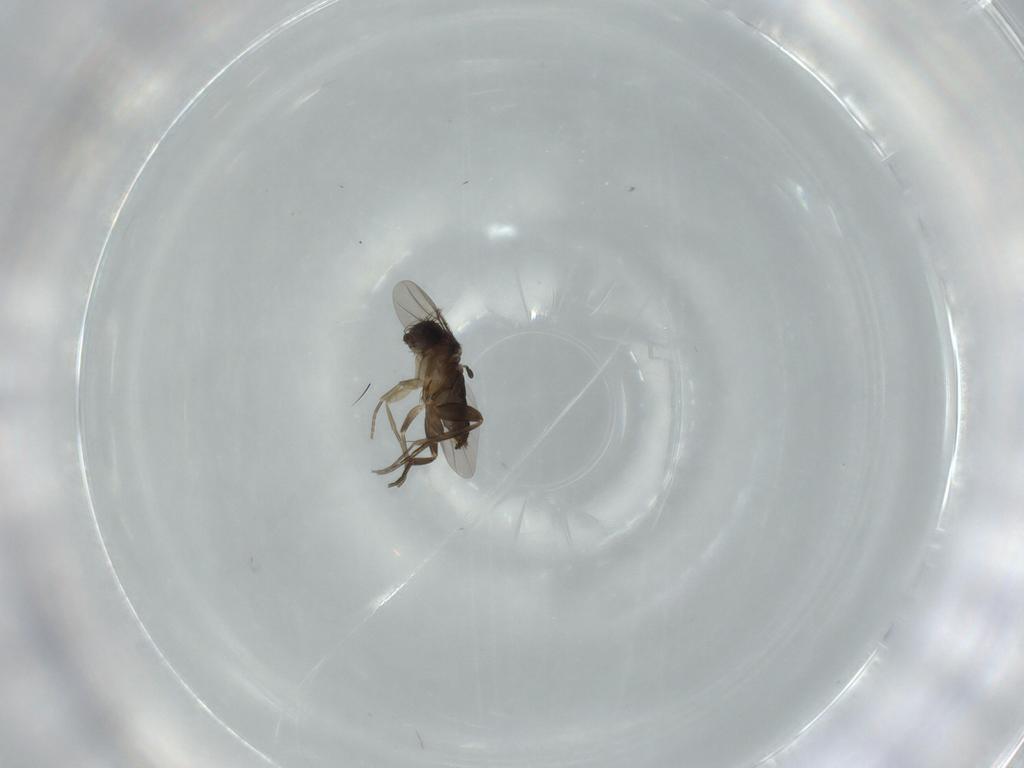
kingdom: Animalia
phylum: Arthropoda
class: Insecta
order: Diptera
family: Phoridae
